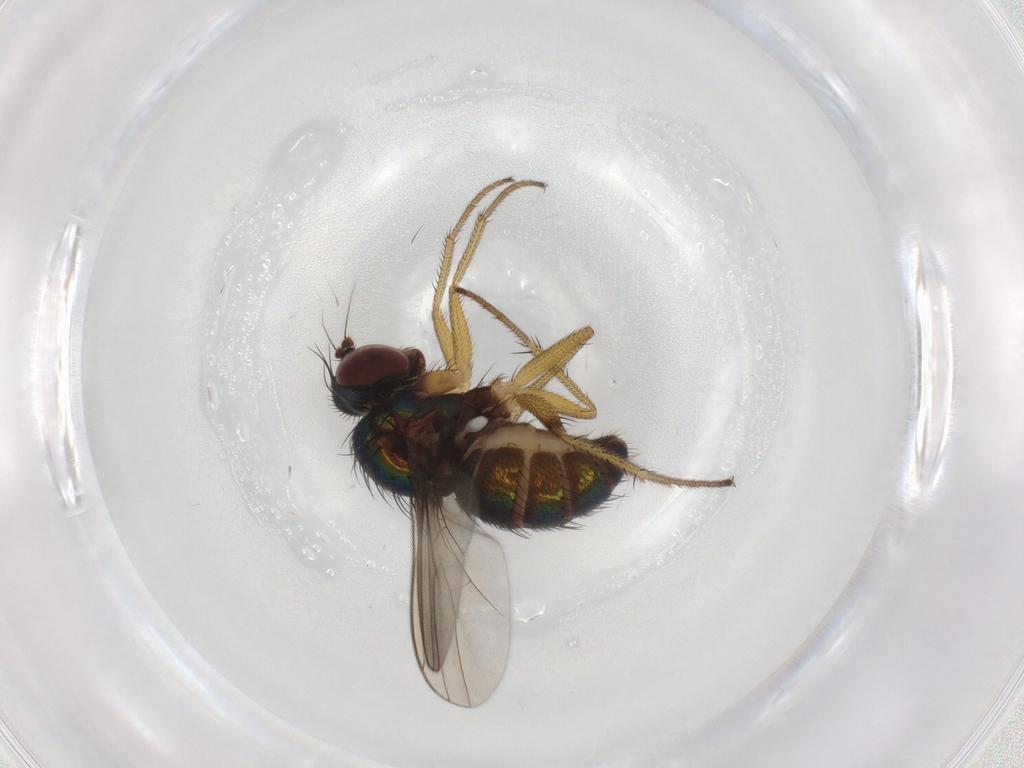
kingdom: Animalia
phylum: Arthropoda
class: Insecta
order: Diptera
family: Dolichopodidae
